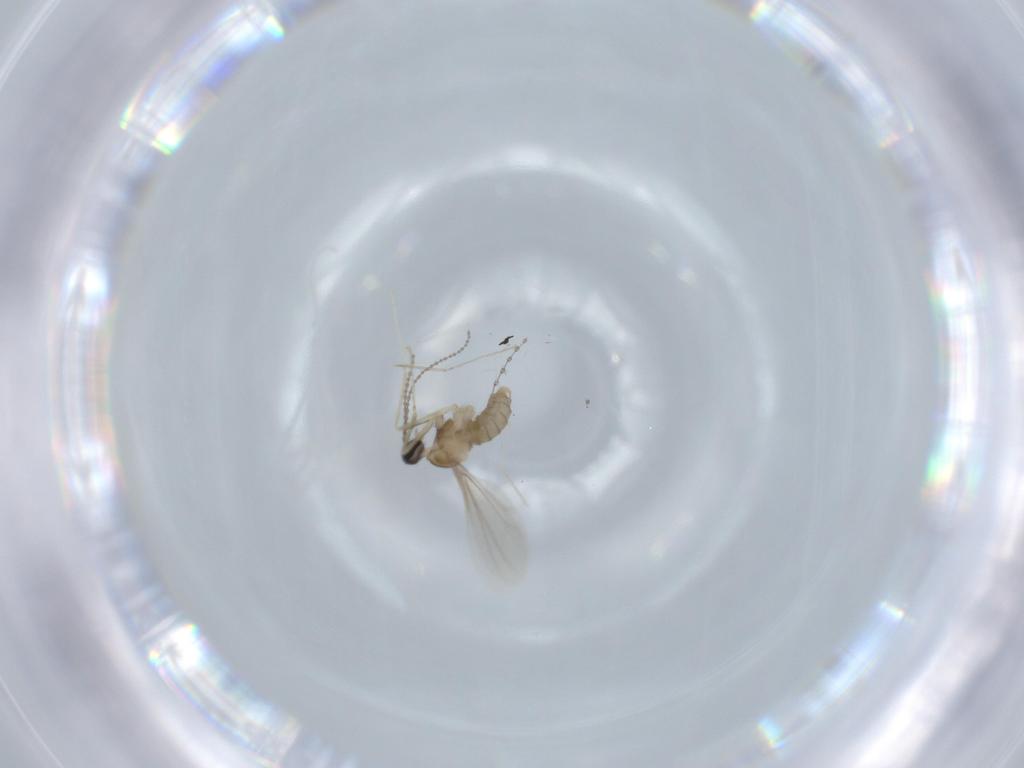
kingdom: Animalia
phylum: Arthropoda
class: Insecta
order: Diptera
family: Cecidomyiidae
